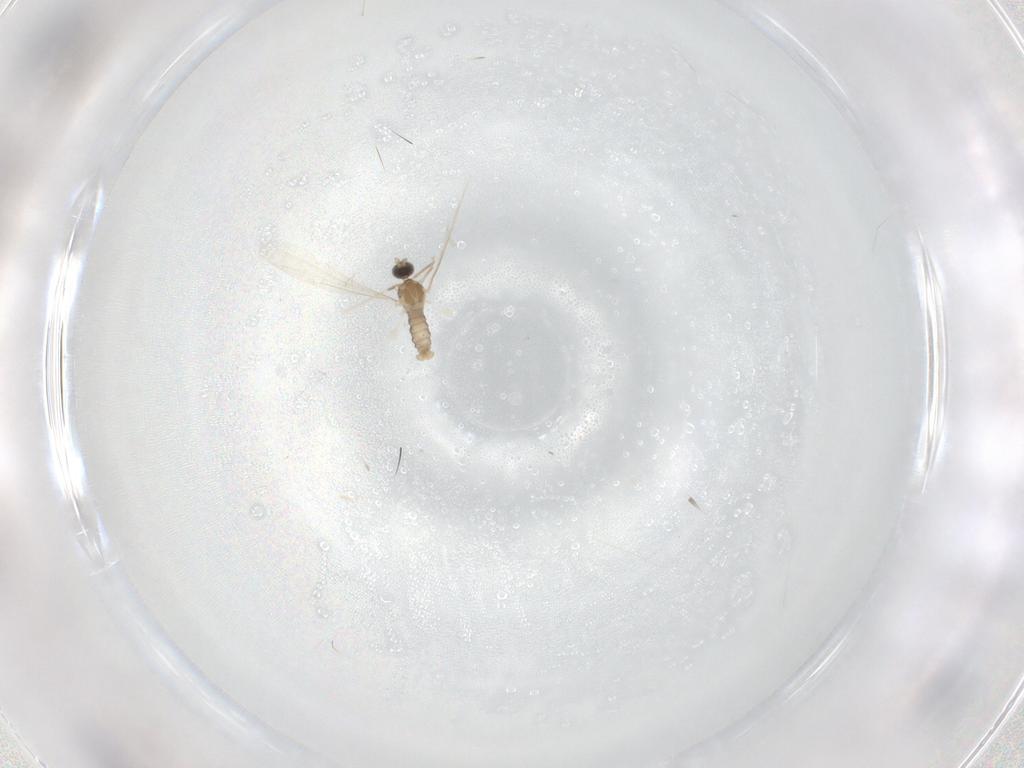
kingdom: Animalia
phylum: Arthropoda
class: Insecta
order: Diptera
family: Cecidomyiidae
